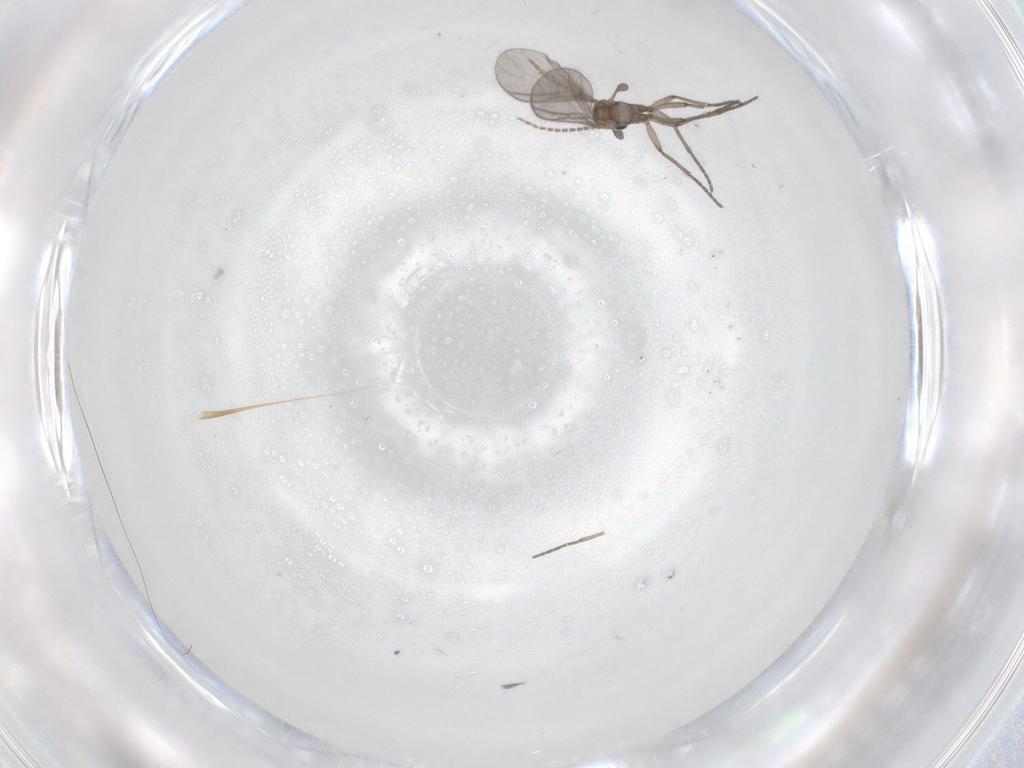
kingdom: Animalia
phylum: Arthropoda
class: Insecta
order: Diptera
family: Sciaridae
